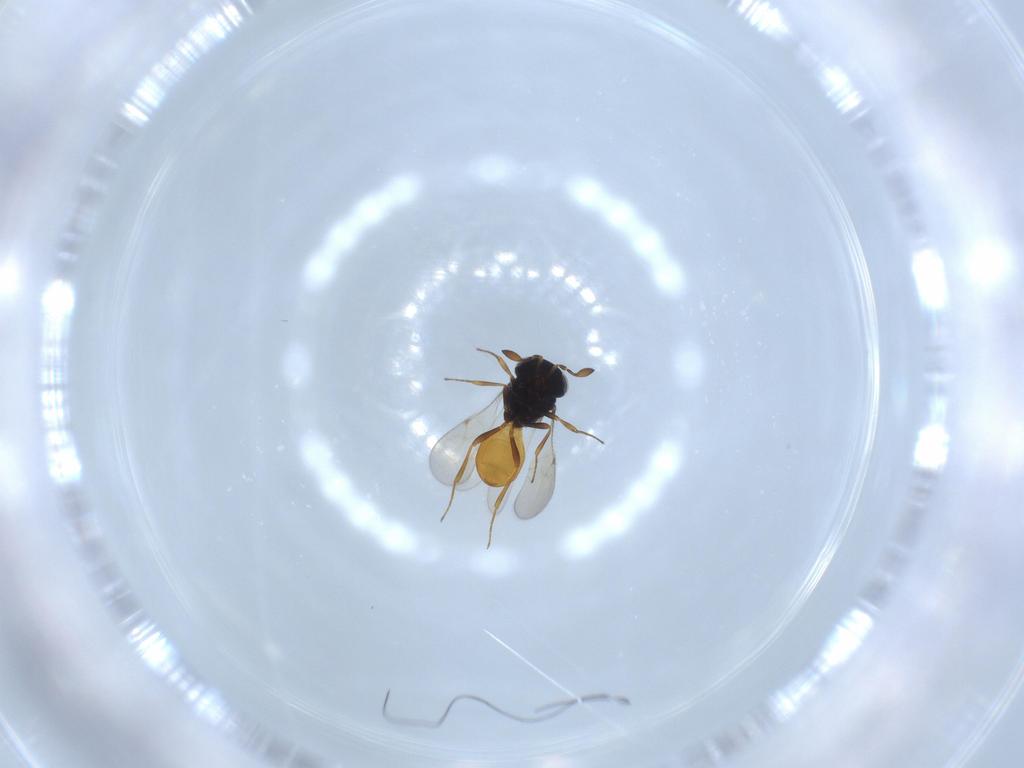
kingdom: Animalia
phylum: Arthropoda
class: Insecta
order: Hymenoptera
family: Scelionidae
